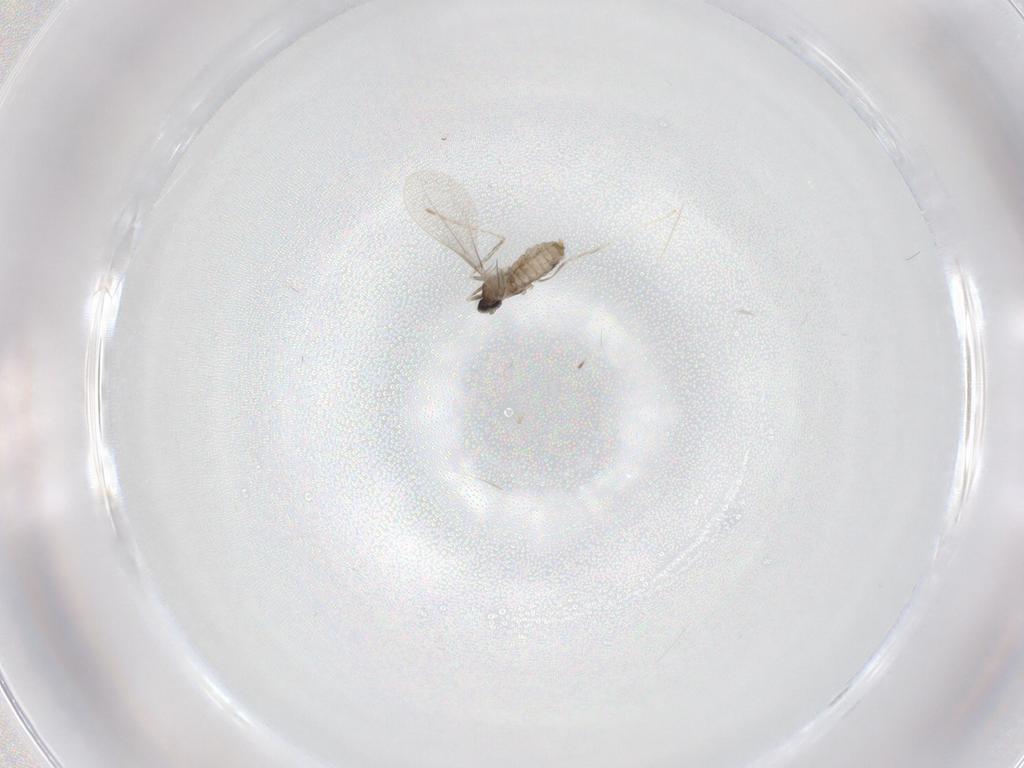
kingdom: Animalia
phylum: Arthropoda
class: Insecta
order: Diptera
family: Cecidomyiidae
